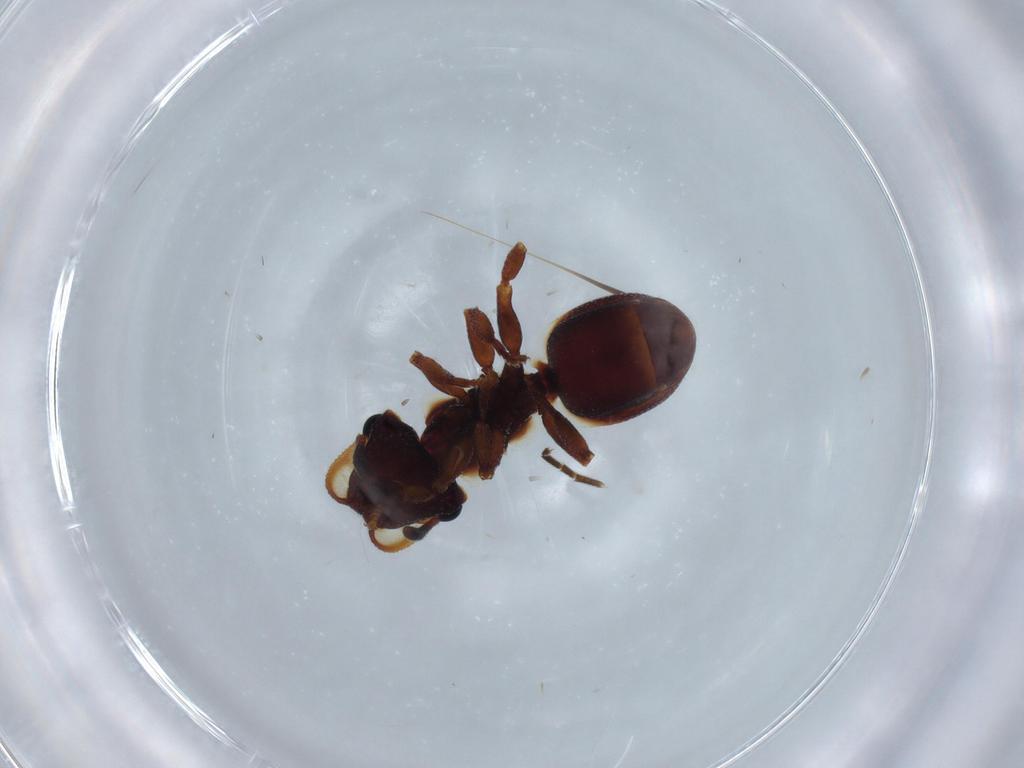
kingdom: Animalia
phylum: Arthropoda
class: Insecta
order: Hymenoptera
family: Ichneumonidae
